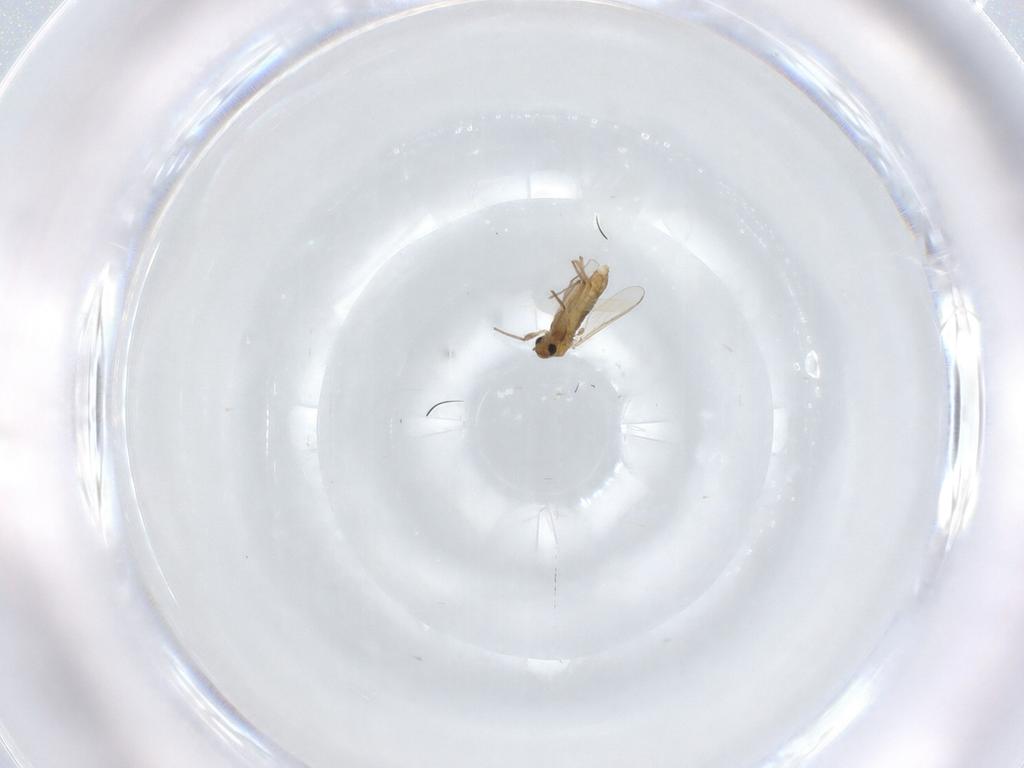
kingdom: Animalia
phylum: Arthropoda
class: Insecta
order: Diptera
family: Chironomidae
